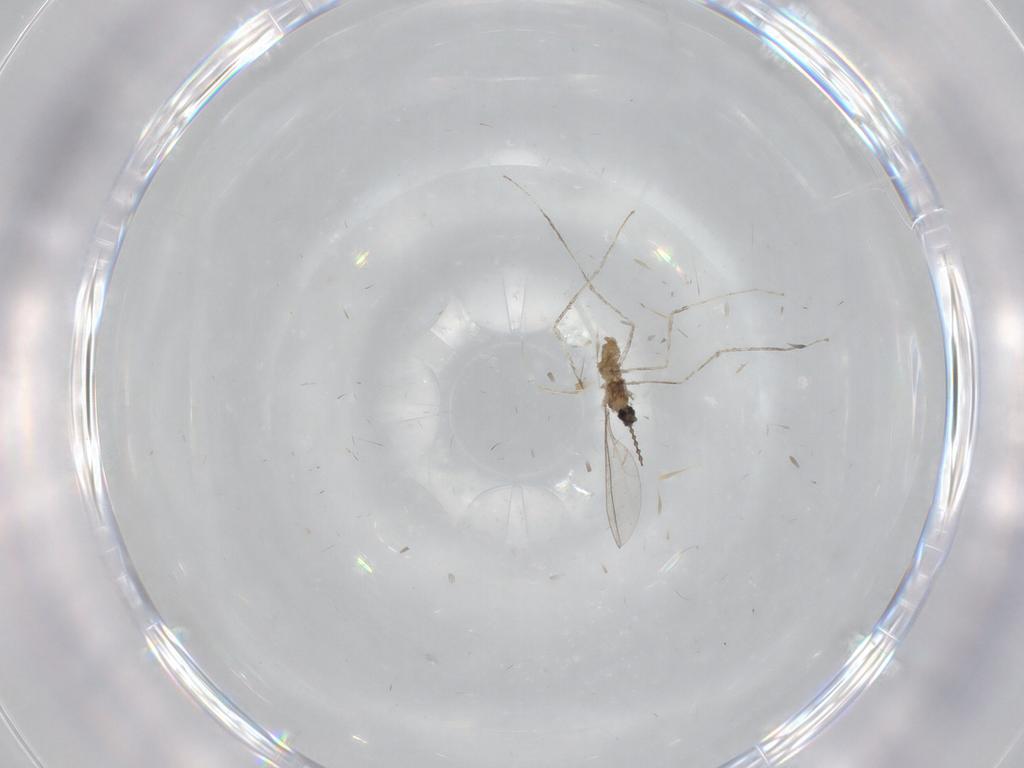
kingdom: Animalia
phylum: Arthropoda
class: Insecta
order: Diptera
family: Cecidomyiidae
